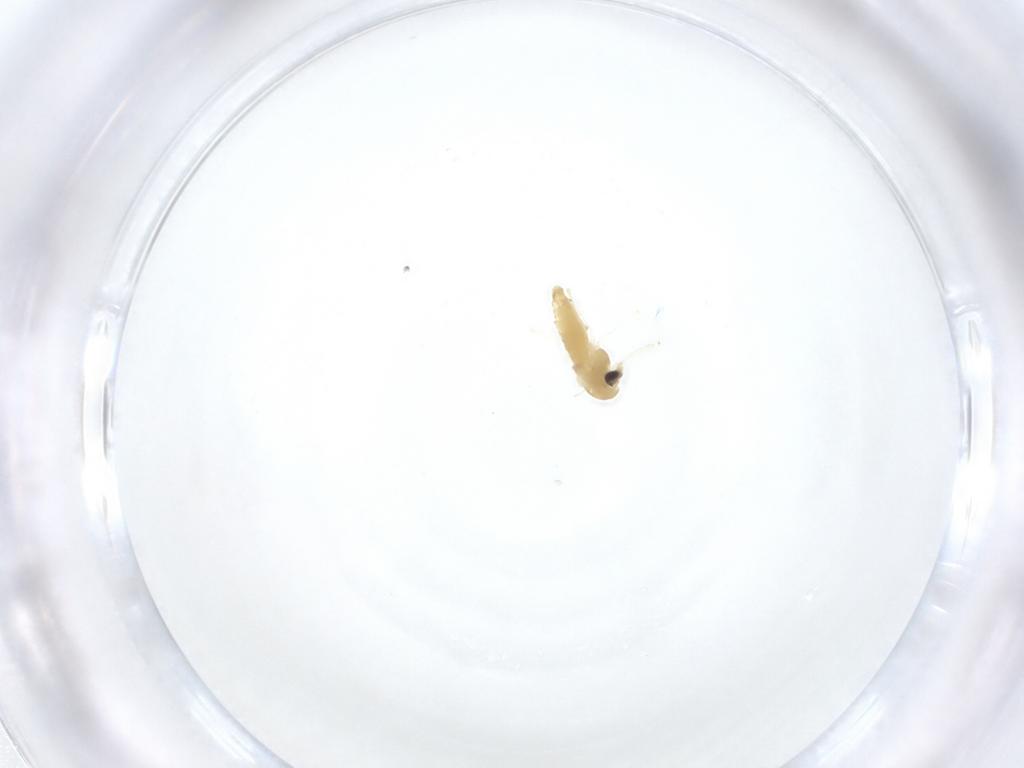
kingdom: Animalia
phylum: Arthropoda
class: Insecta
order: Diptera
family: Chironomidae
